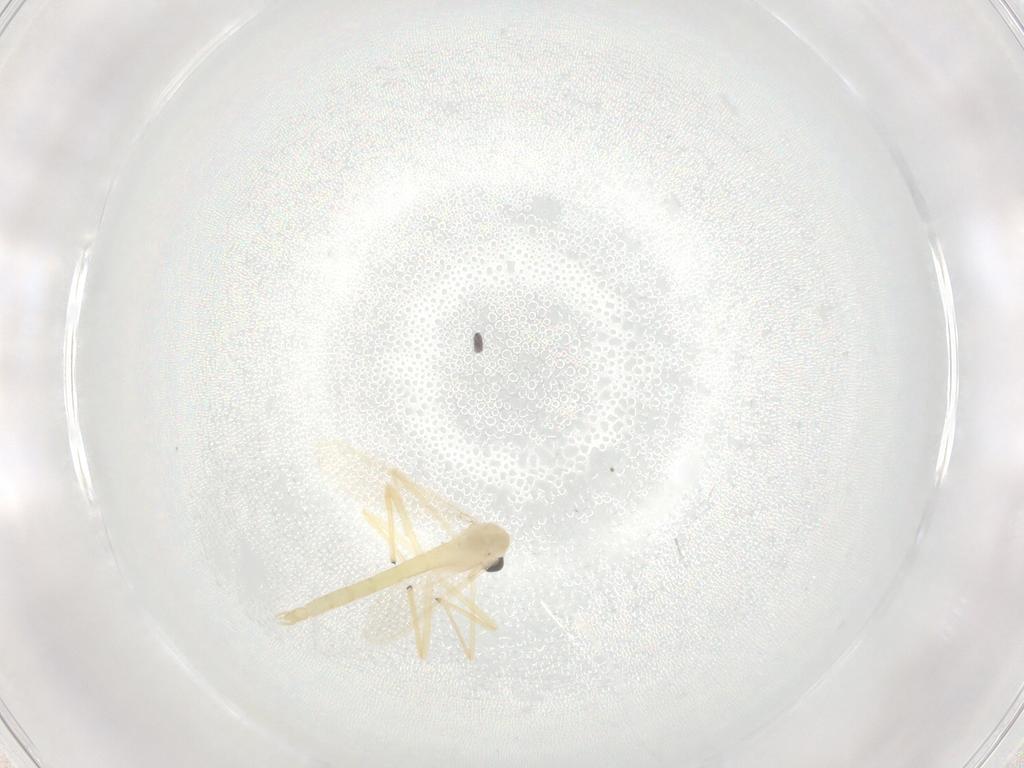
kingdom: Animalia
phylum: Arthropoda
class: Insecta
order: Diptera
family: Chironomidae
